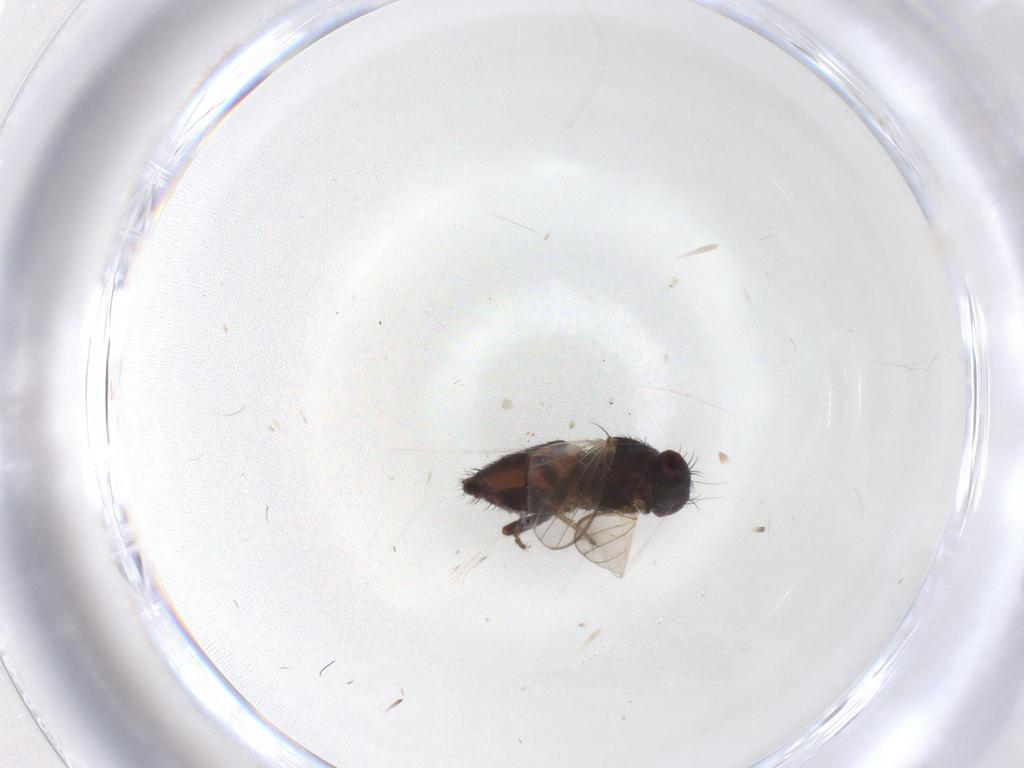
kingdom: Animalia
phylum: Arthropoda
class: Insecta
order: Diptera
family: Milichiidae
